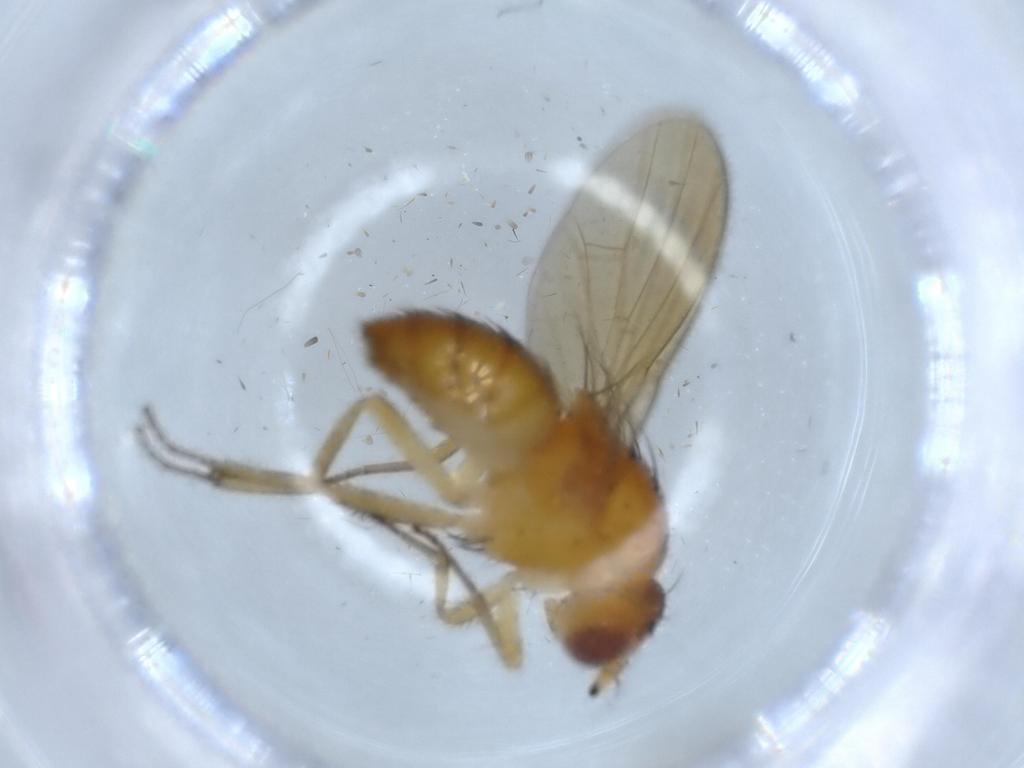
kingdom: Animalia
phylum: Arthropoda
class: Insecta
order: Diptera
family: Lauxaniidae
